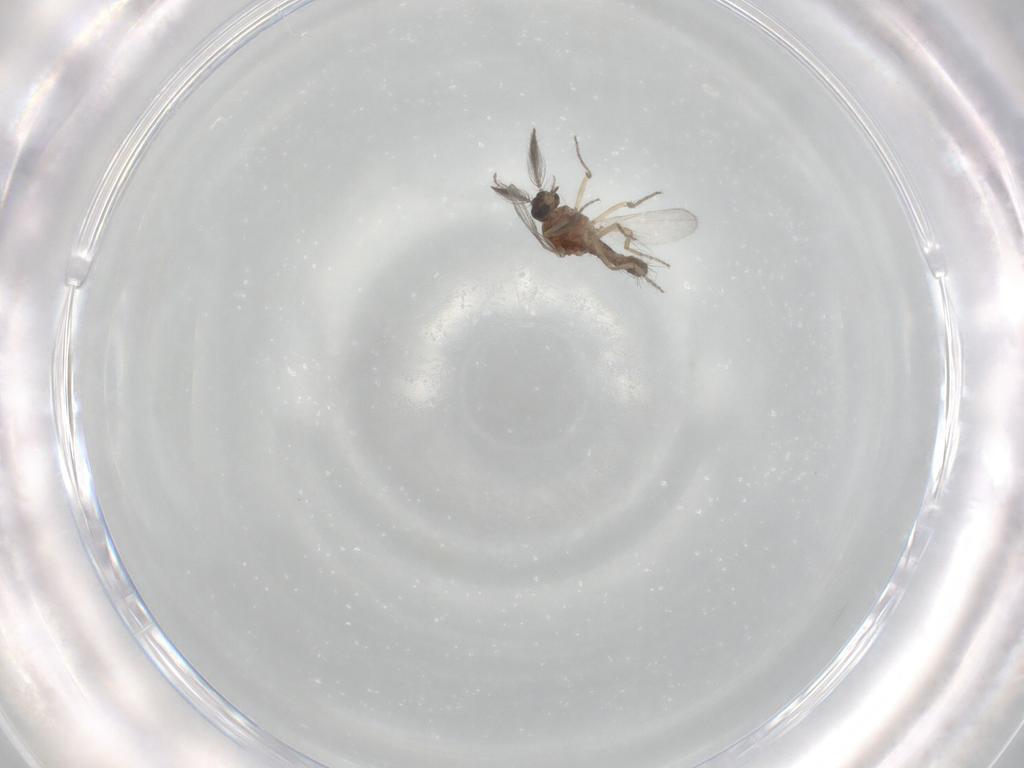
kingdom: Animalia
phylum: Arthropoda
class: Insecta
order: Diptera
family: Ceratopogonidae
